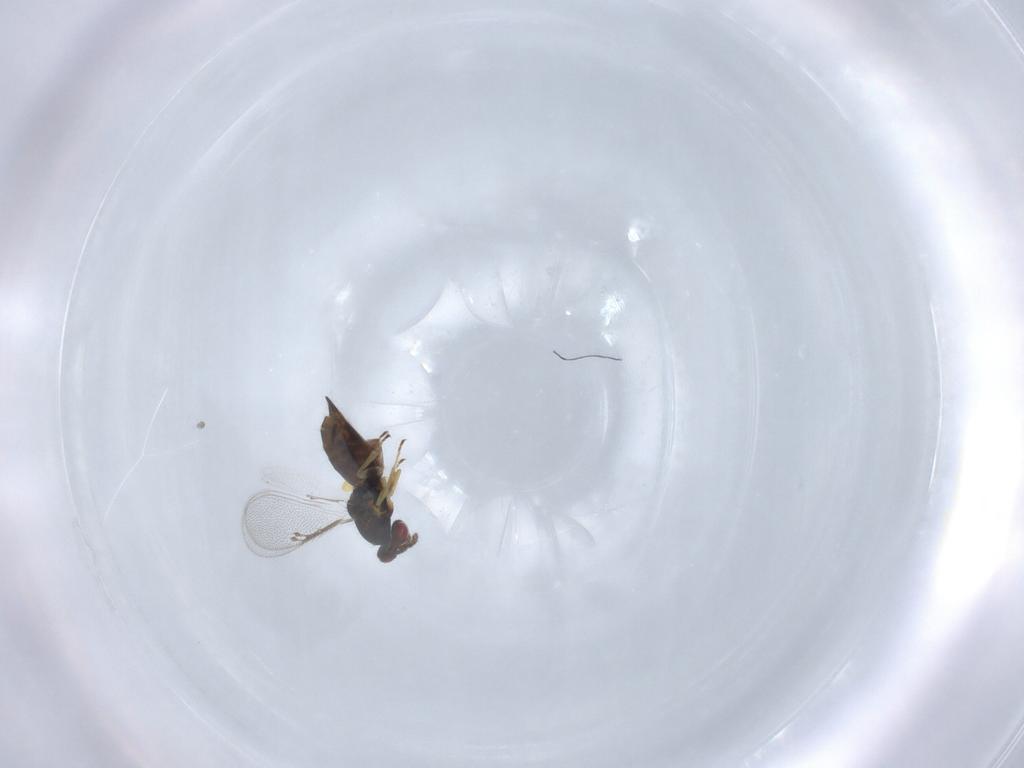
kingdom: Animalia
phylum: Arthropoda
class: Insecta
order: Hymenoptera
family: Eulophidae
